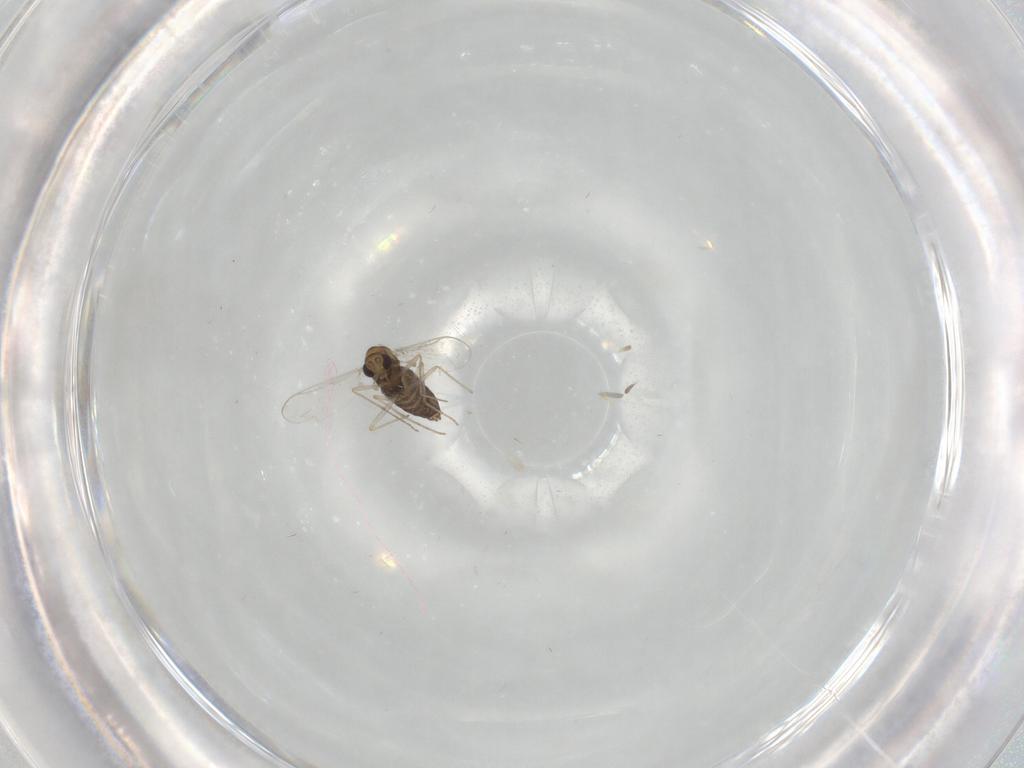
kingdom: Animalia
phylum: Arthropoda
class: Insecta
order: Diptera
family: Chironomidae
